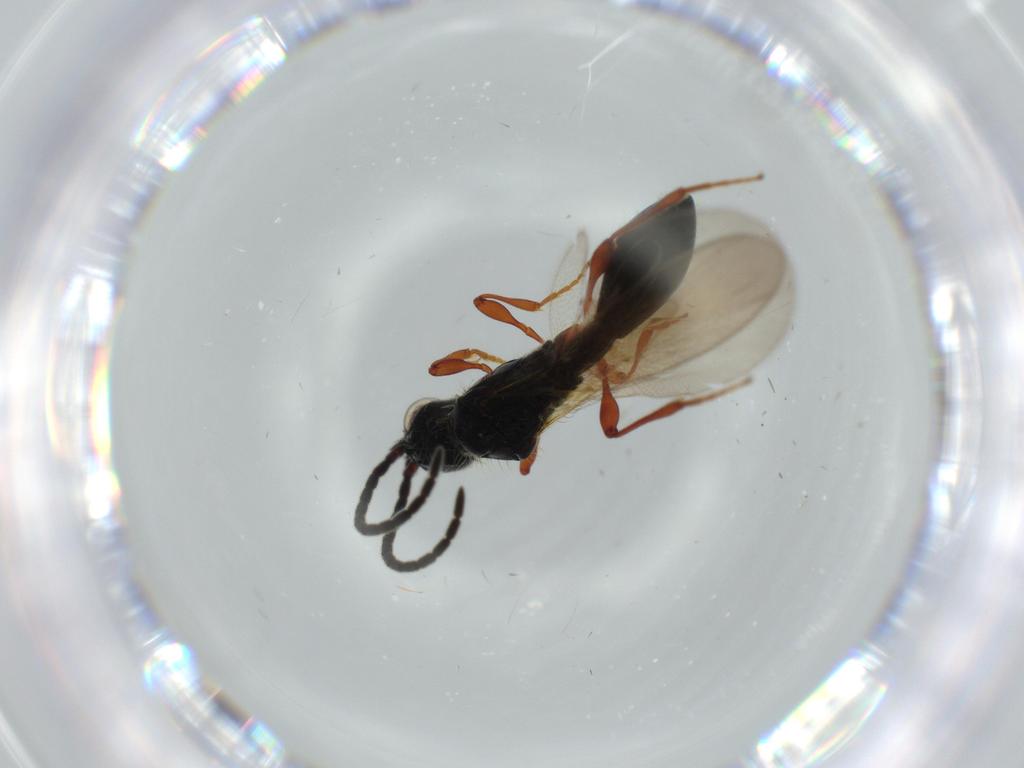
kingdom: Animalia
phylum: Arthropoda
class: Insecta
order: Hymenoptera
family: Diapriidae
